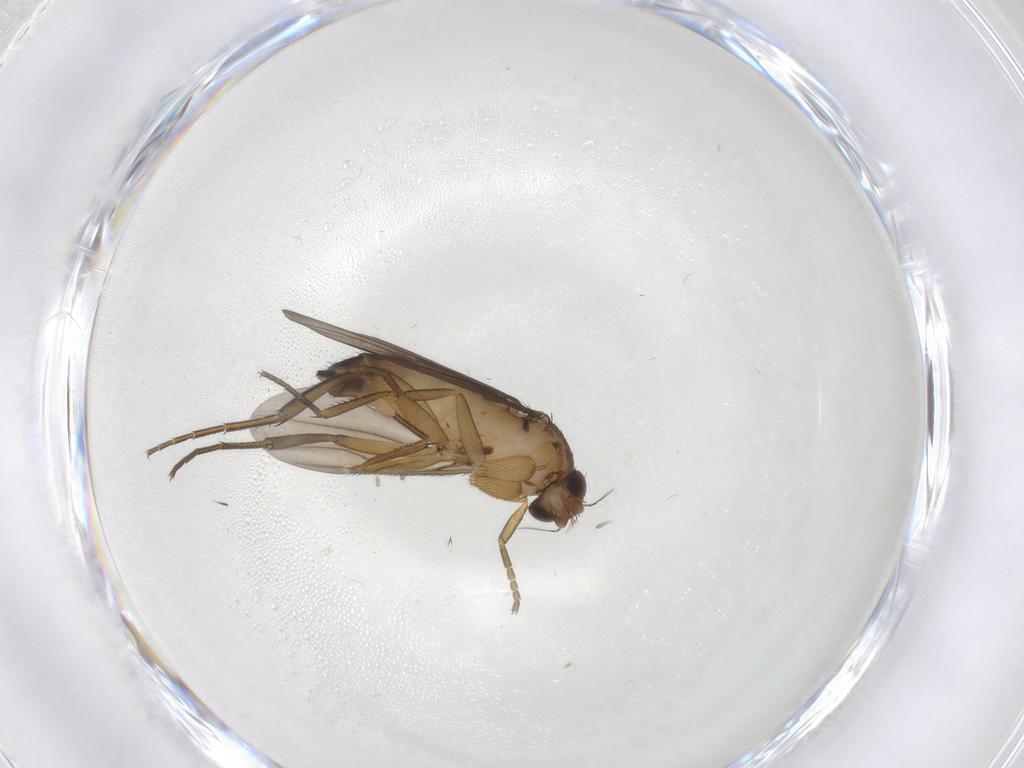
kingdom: Animalia
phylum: Arthropoda
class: Insecta
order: Diptera
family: Phoridae
